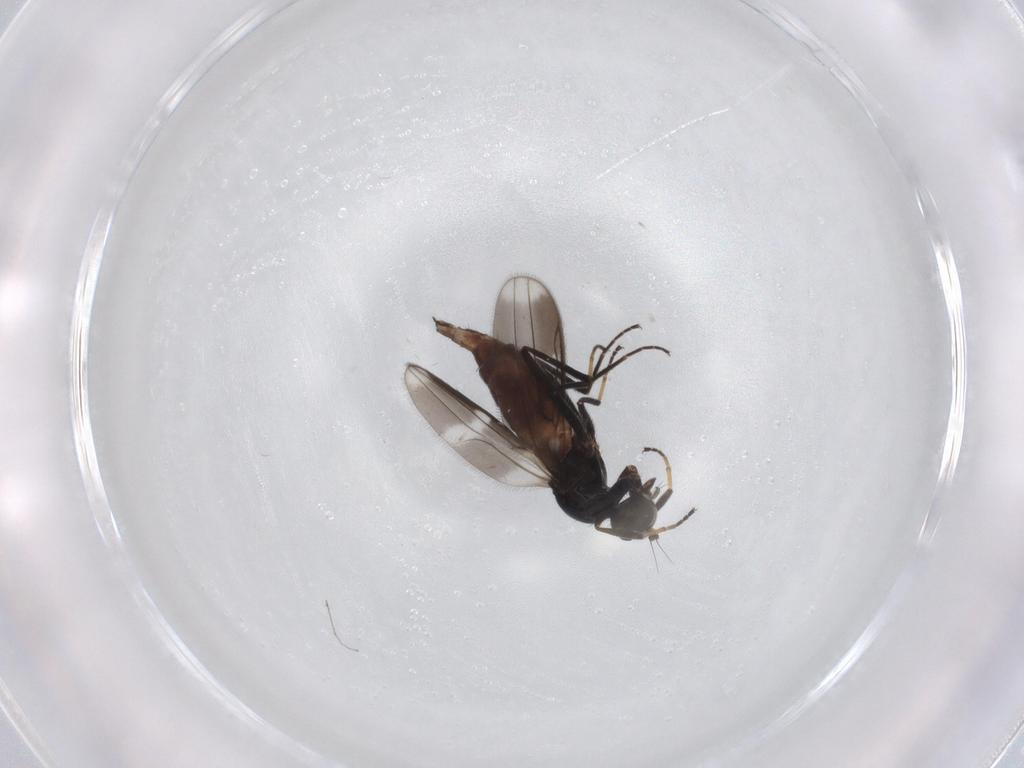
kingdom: Animalia
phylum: Arthropoda
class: Insecta
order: Diptera
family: Hybotidae
